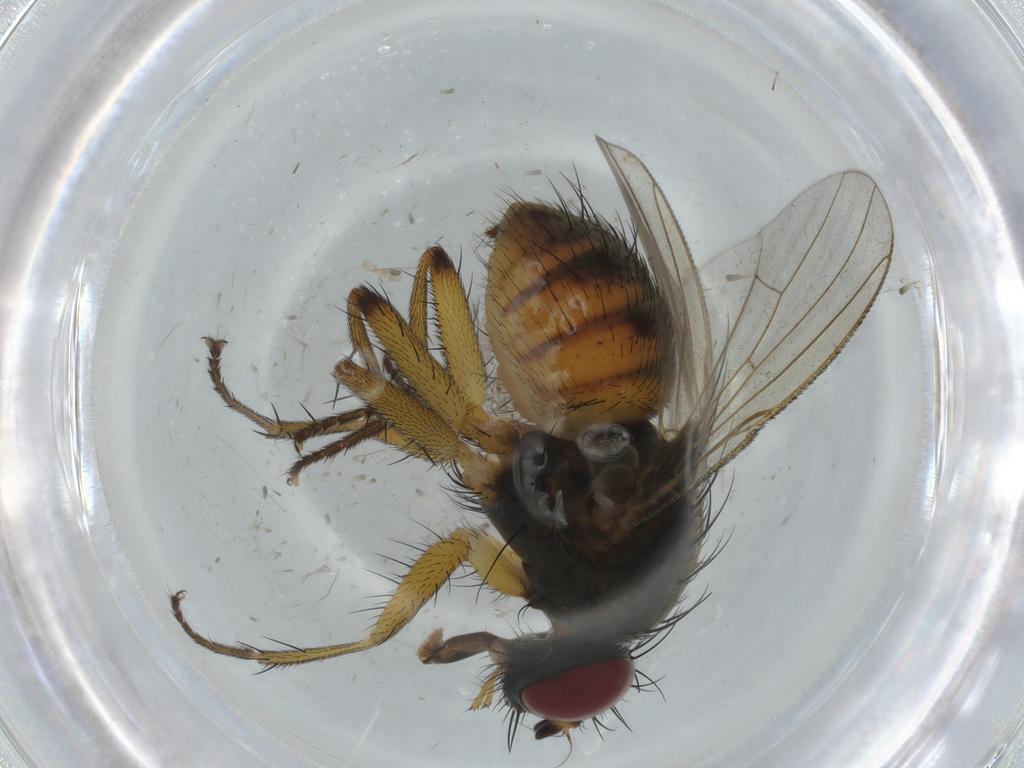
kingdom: Animalia
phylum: Arthropoda
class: Insecta
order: Diptera
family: Muscidae
